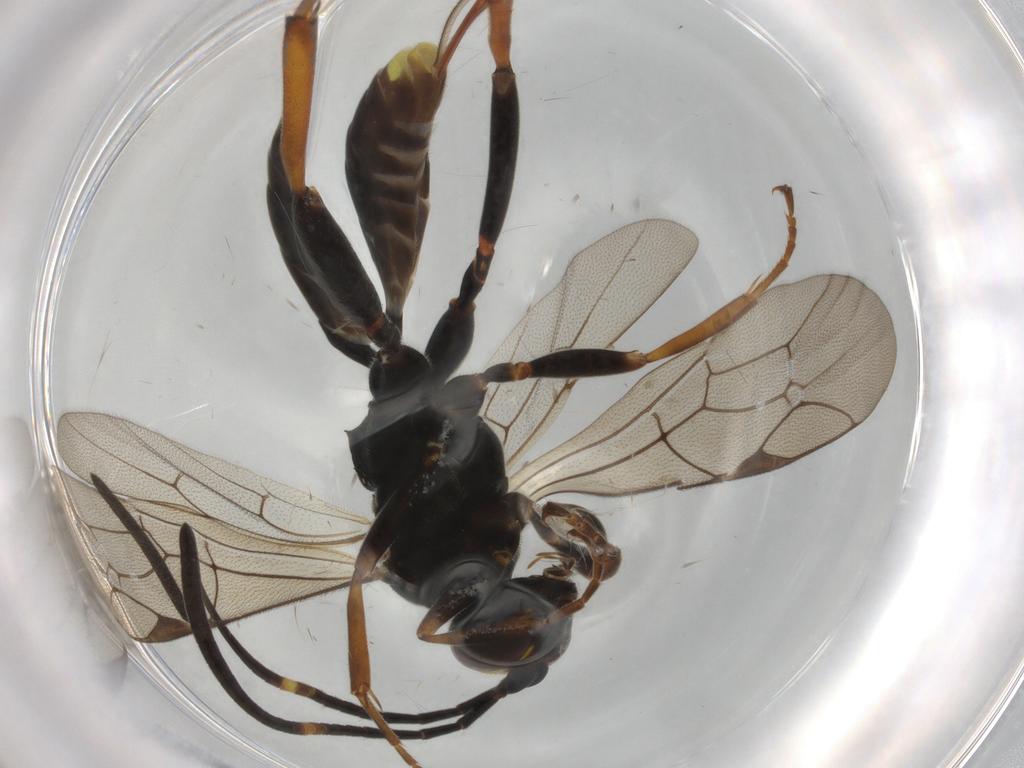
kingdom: Animalia
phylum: Arthropoda
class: Insecta
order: Hymenoptera
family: Ichneumonidae
